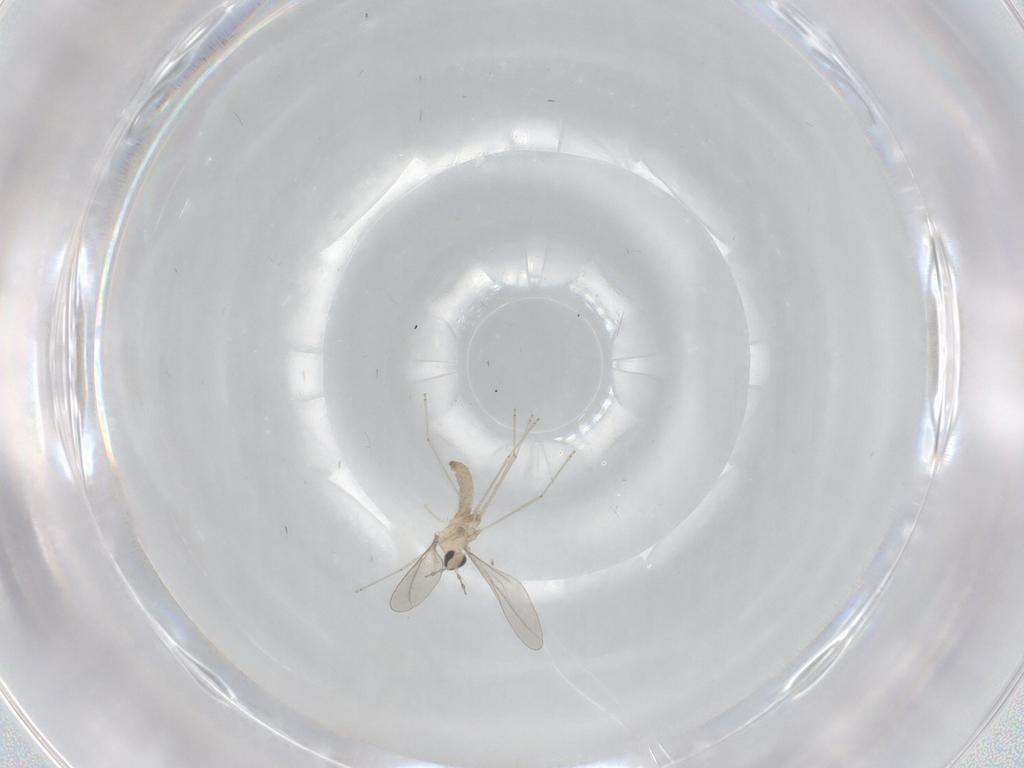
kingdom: Animalia
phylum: Arthropoda
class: Insecta
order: Diptera
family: Cecidomyiidae
